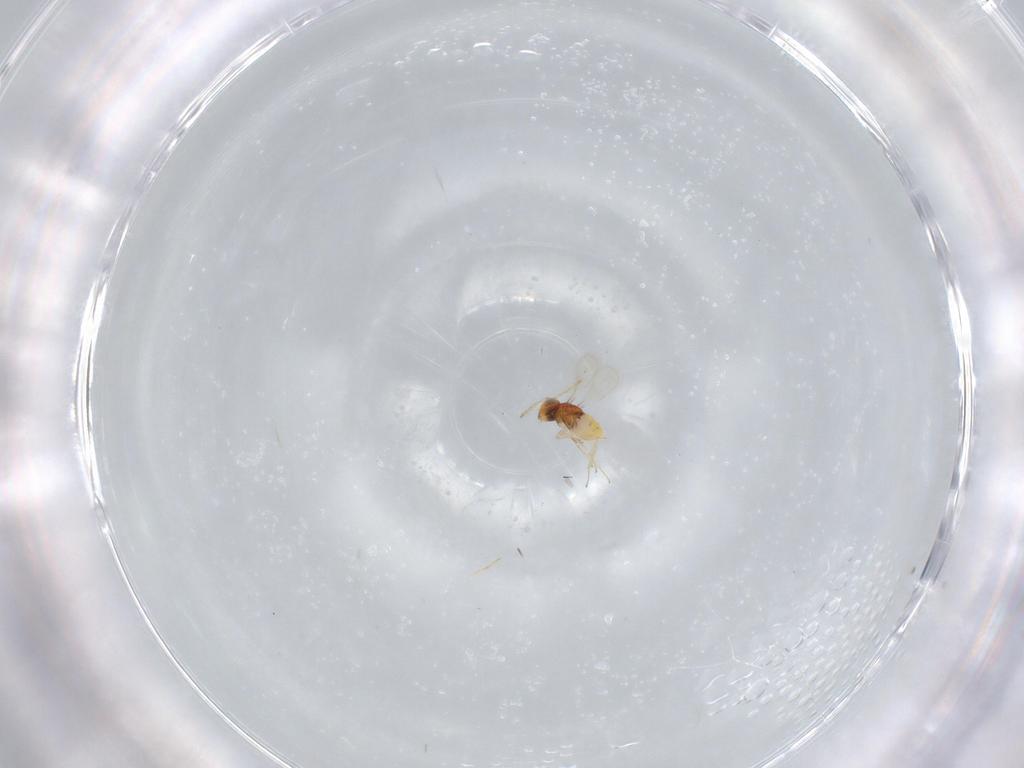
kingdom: Animalia
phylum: Arthropoda
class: Insecta
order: Hymenoptera
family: Aphelinidae
